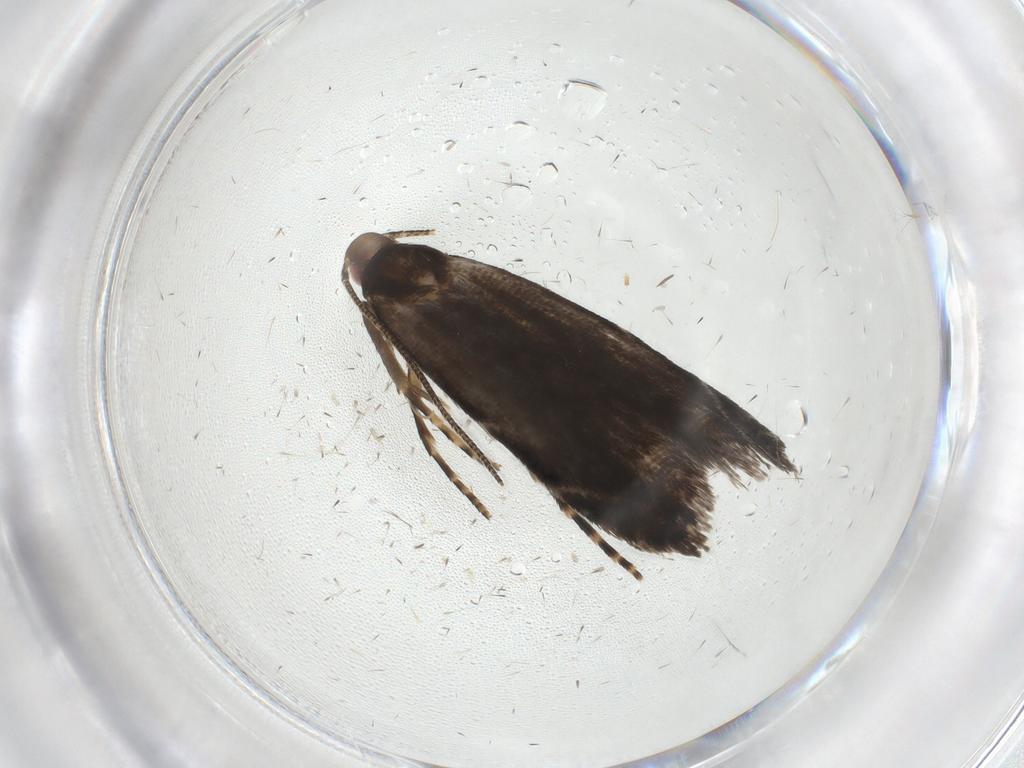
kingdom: Animalia
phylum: Arthropoda
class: Insecta
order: Lepidoptera
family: Gelechiidae
